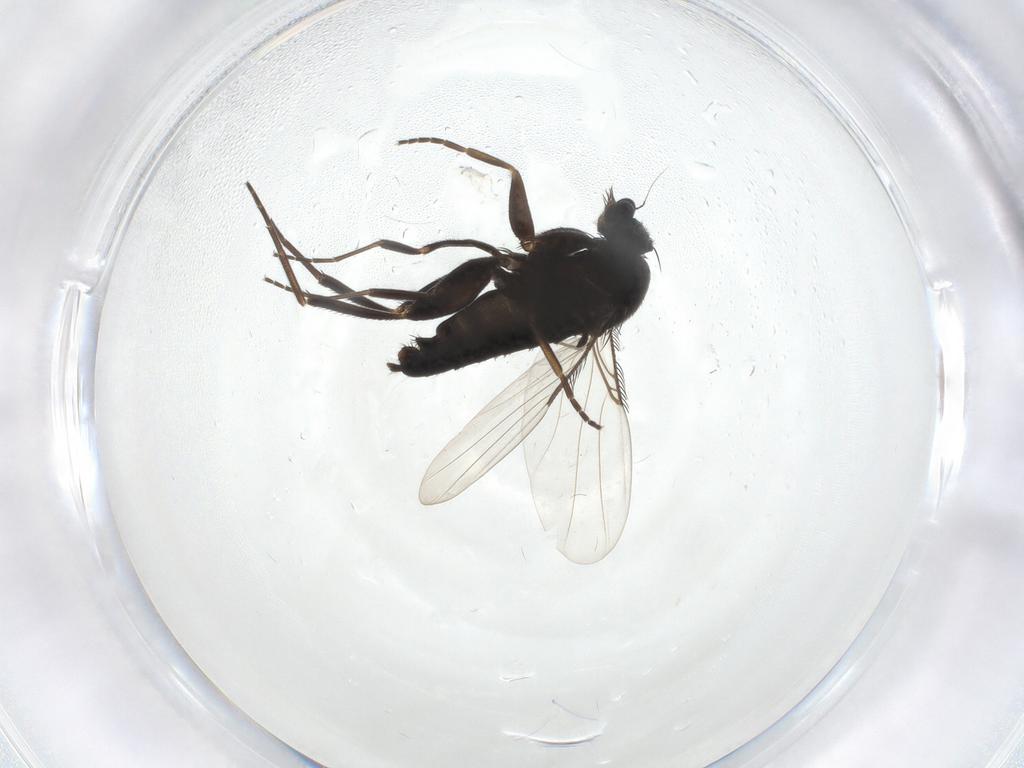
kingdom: Animalia
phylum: Arthropoda
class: Insecta
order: Diptera
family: Phoridae
